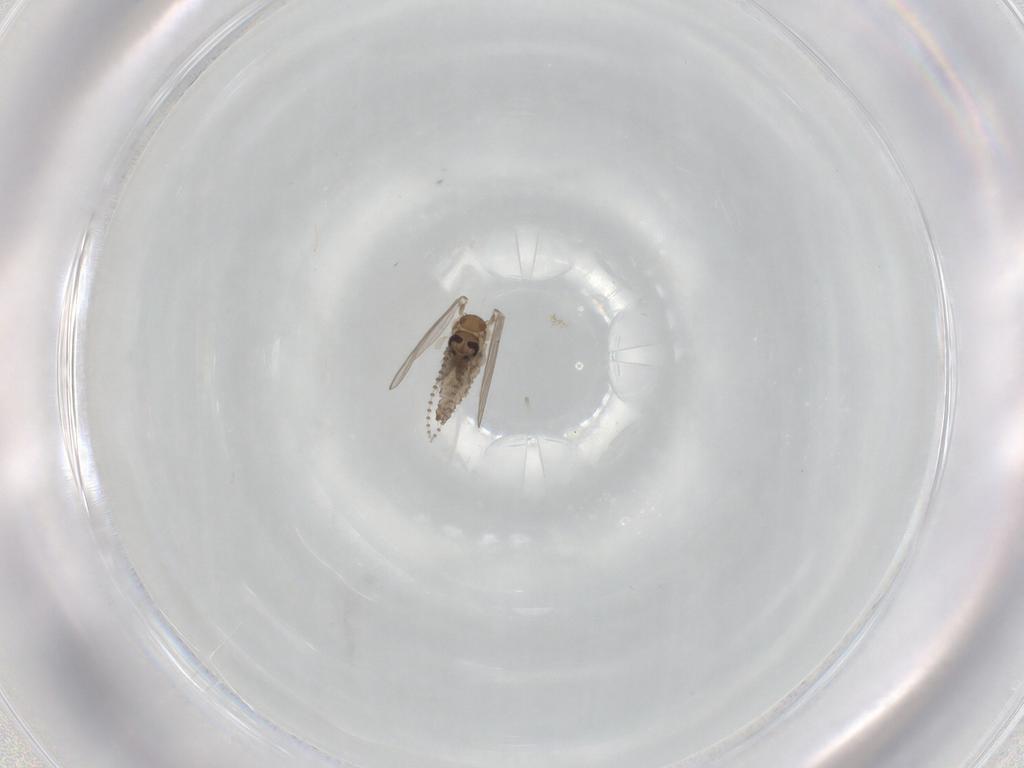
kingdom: Animalia
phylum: Arthropoda
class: Insecta
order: Diptera
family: Psychodidae
